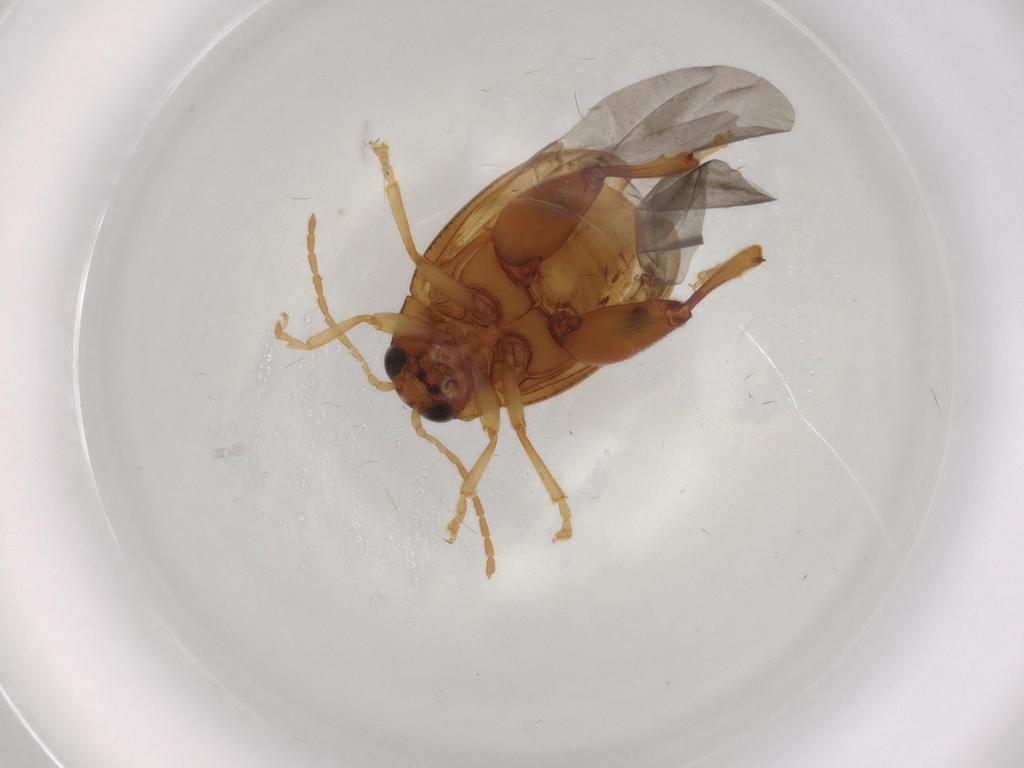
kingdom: Animalia
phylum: Arthropoda
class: Insecta
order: Coleoptera
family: Chrysomelidae
